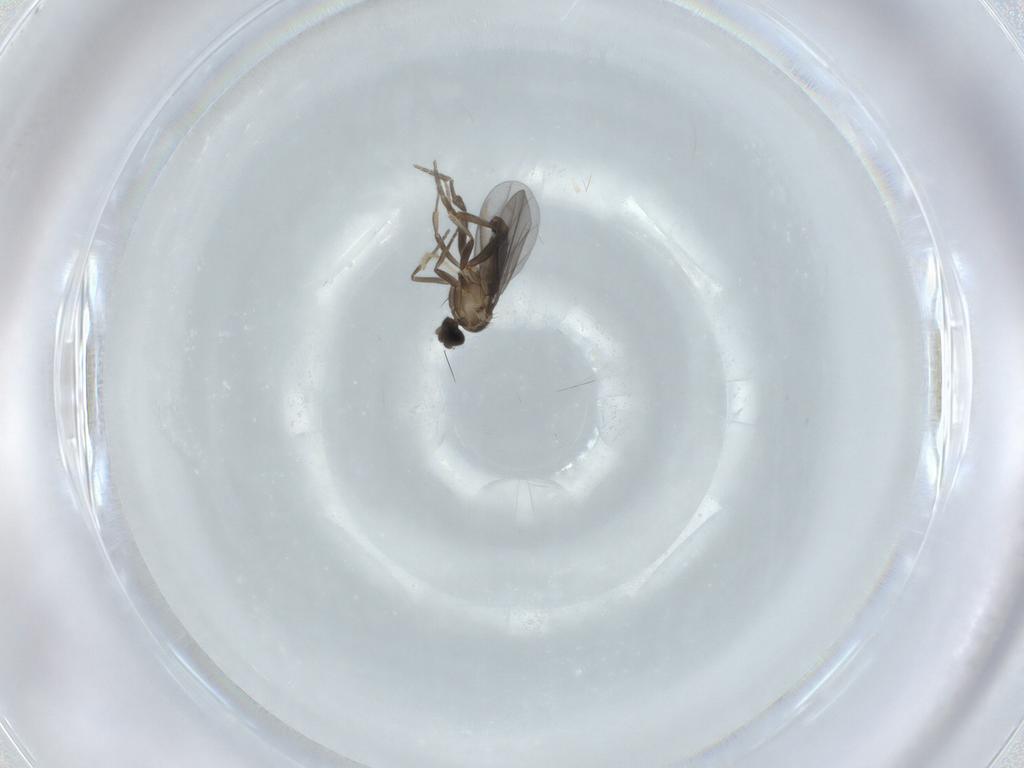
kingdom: Animalia
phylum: Arthropoda
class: Insecta
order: Diptera
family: Chironomidae
